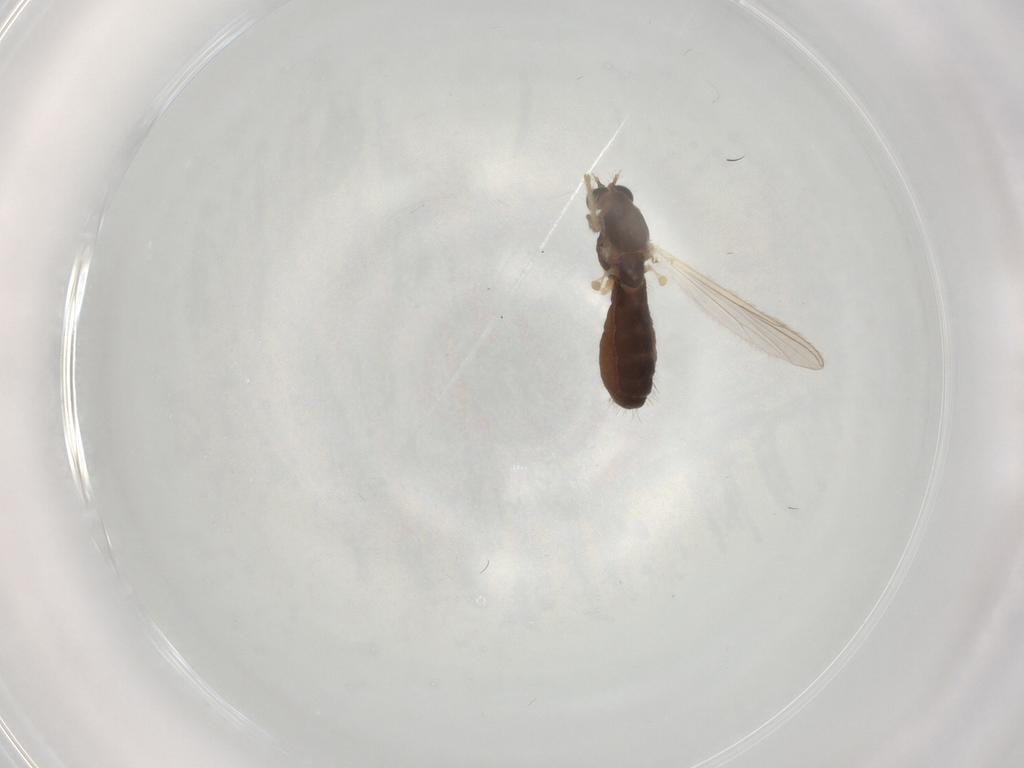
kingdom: Animalia
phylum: Arthropoda
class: Insecta
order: Diptera
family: Chironomidae
